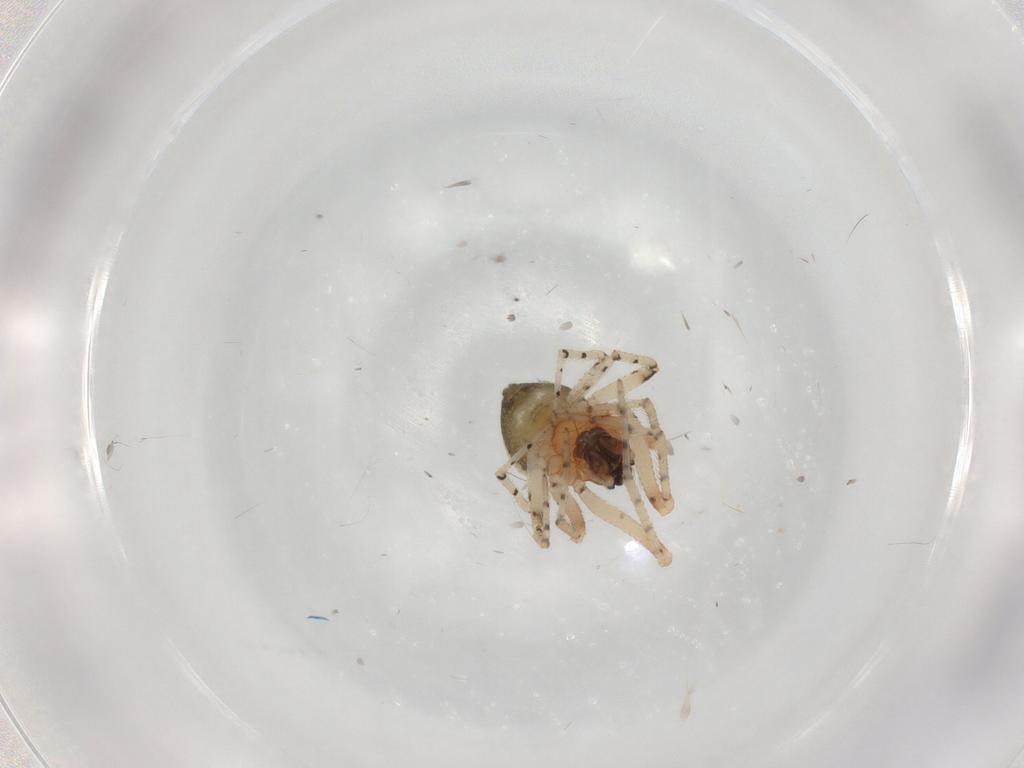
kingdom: Animalia
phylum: Arthropoda
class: Arachnida
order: Araneae
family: Theridiidae
